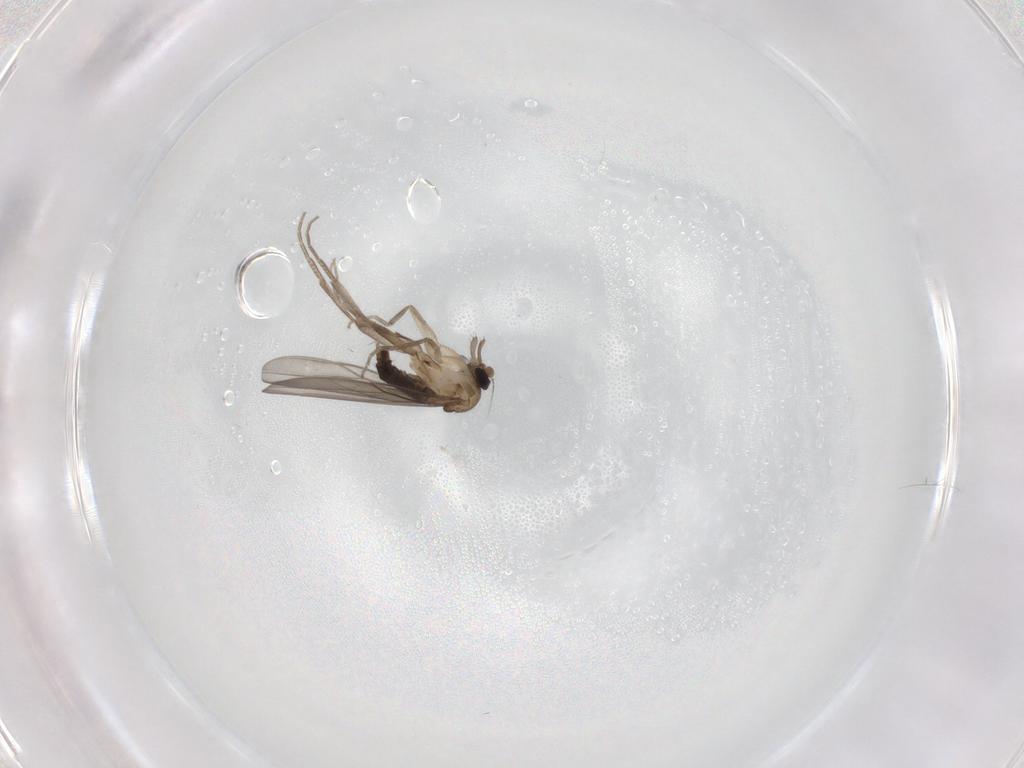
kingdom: Animalia
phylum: Arthropoda
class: Insecta
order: Diptera
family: Phoridae
